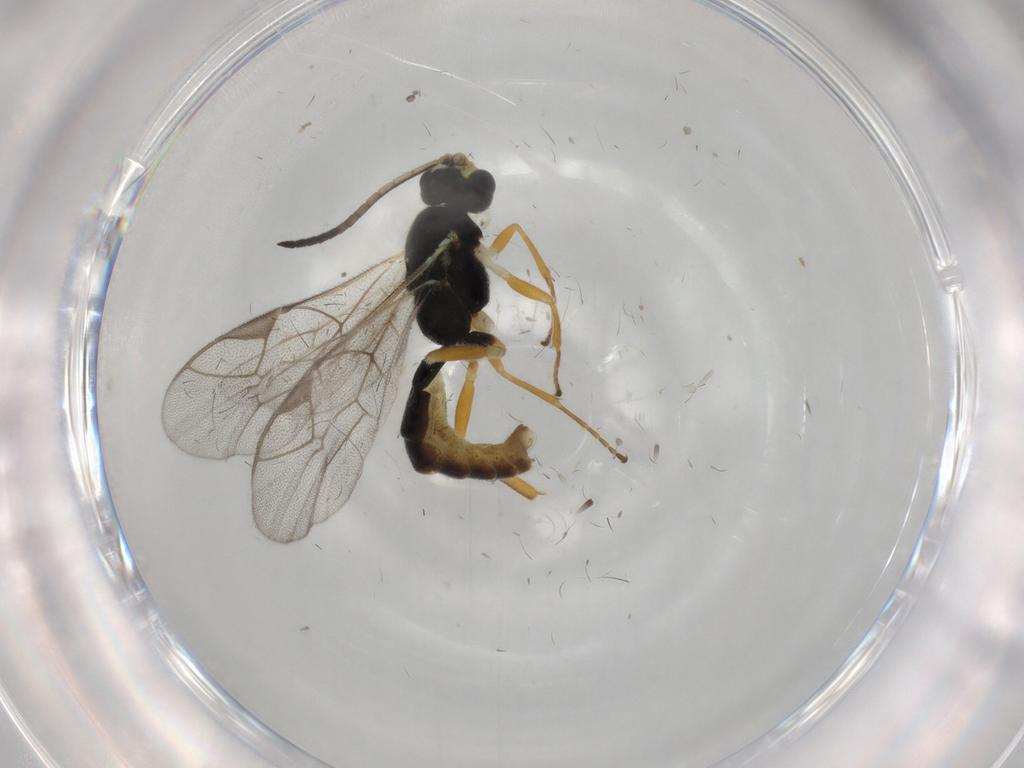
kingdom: Animalia
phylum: Arthropoda
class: Insecta
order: Hymenoptera
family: Ichneumonidae
